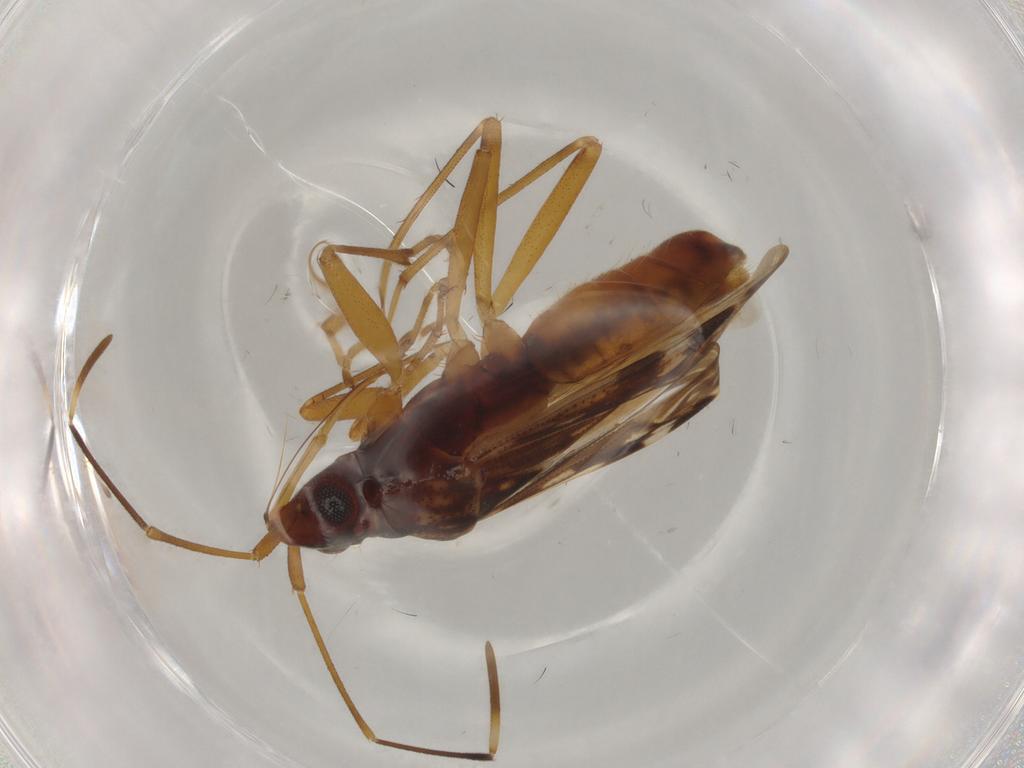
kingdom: Animalia
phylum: Arthropoda
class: Insecta
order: Hemiptera
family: Rhyparochromidae
